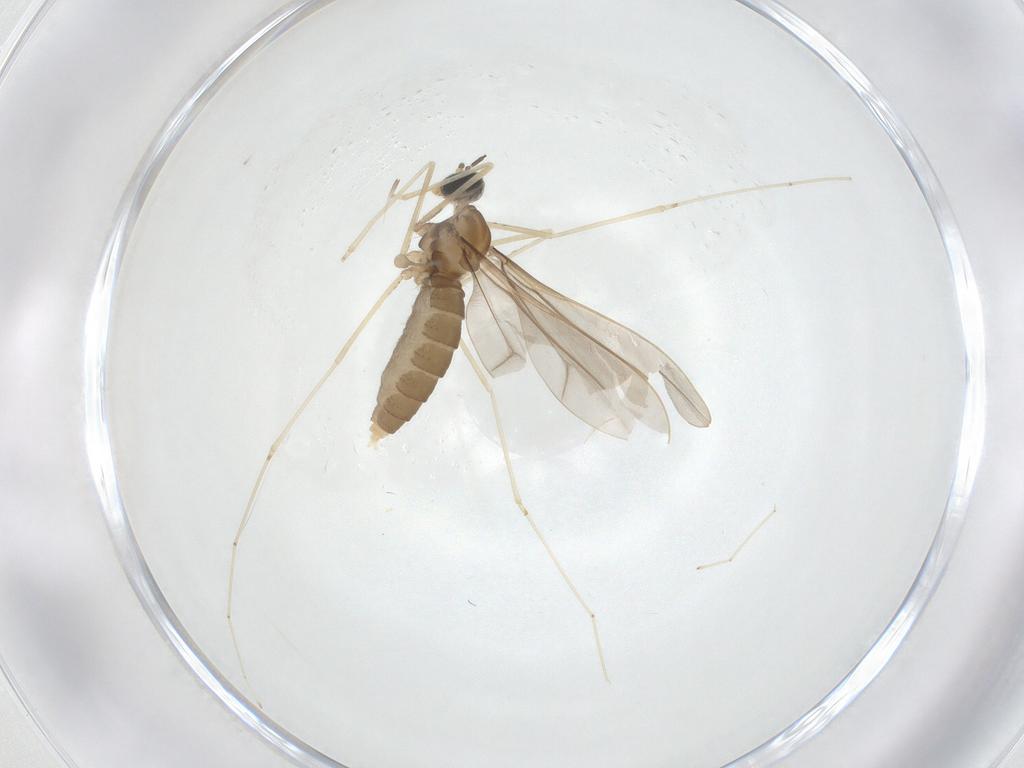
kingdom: Animalia
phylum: Arthropoda
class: Insecta
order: Diptera
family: Cecidomyiidae
